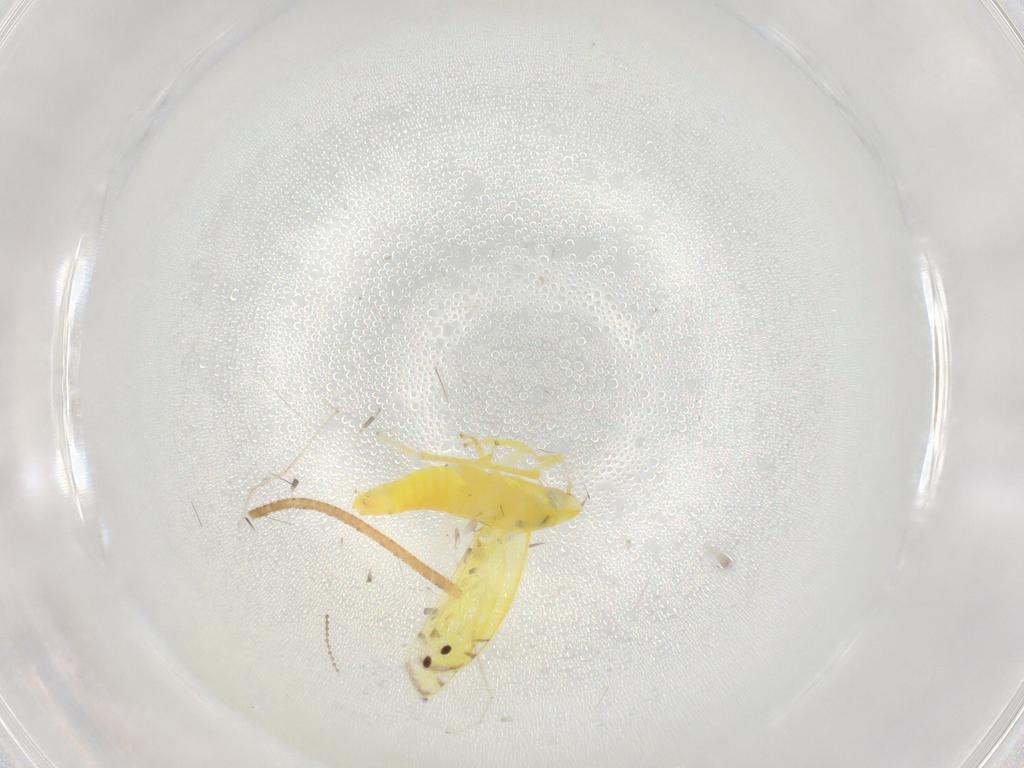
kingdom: Animalia
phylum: Arthropoda
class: Insecta
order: Hemiptera
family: Cicadellidae
